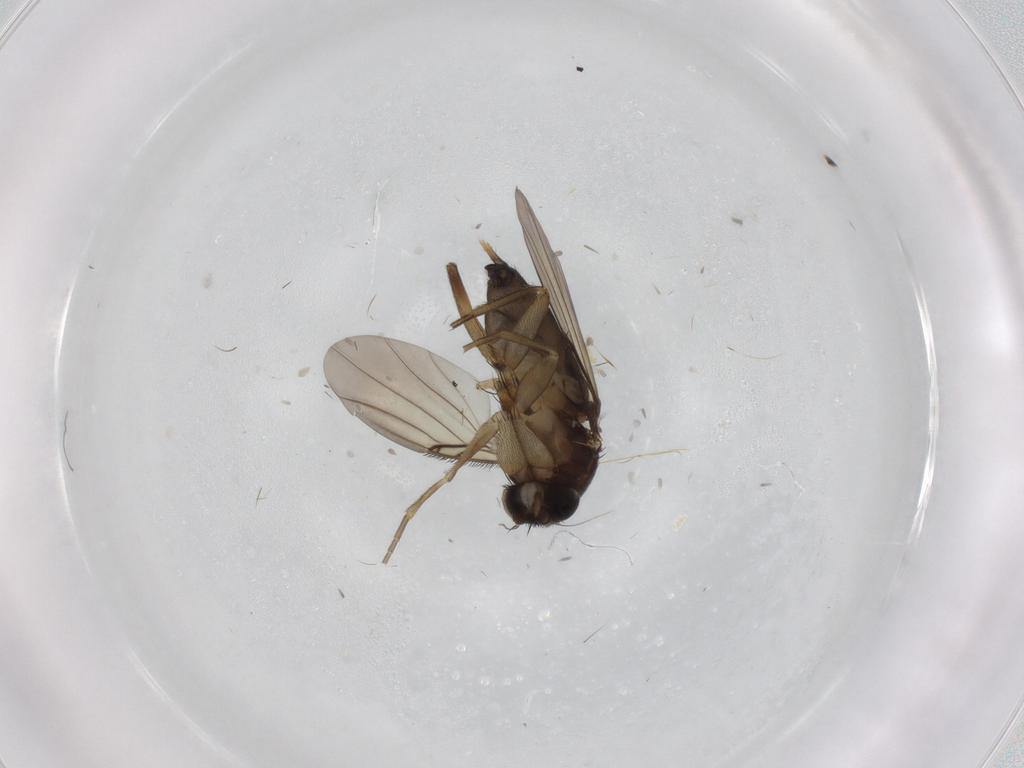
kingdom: Animalia
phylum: Arthropoda
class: Insecta
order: Diptera
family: Phoridae
